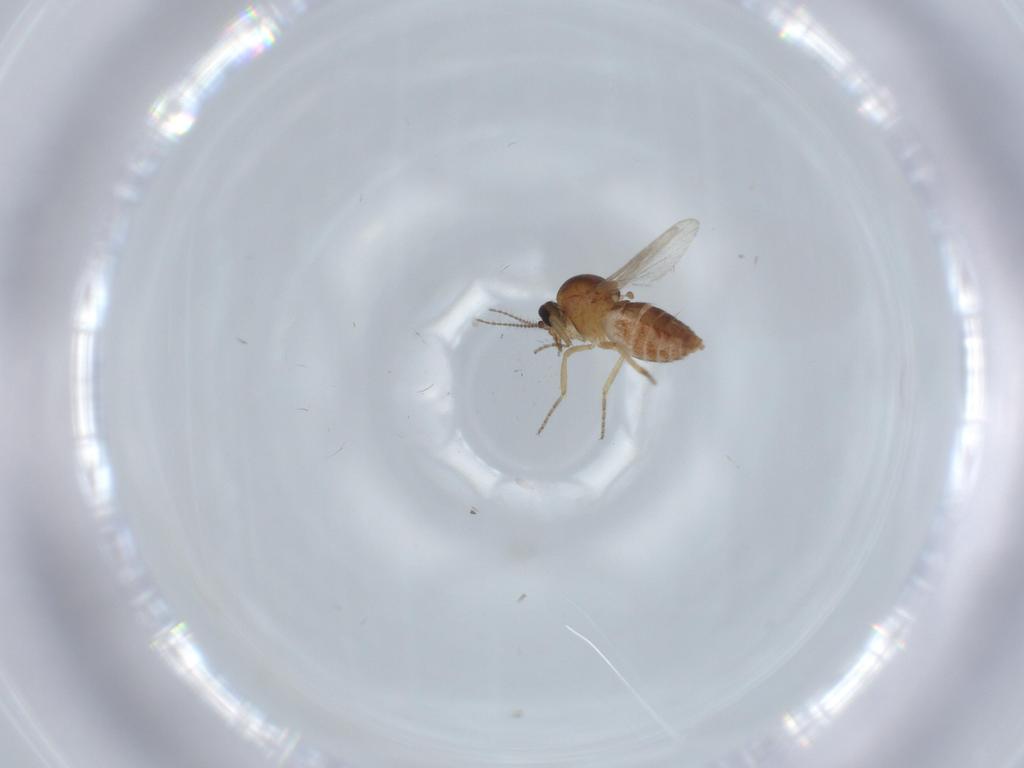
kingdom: Animalia
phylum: Arthropoda
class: Insecta
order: Diptera
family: Ceratopogonidae
